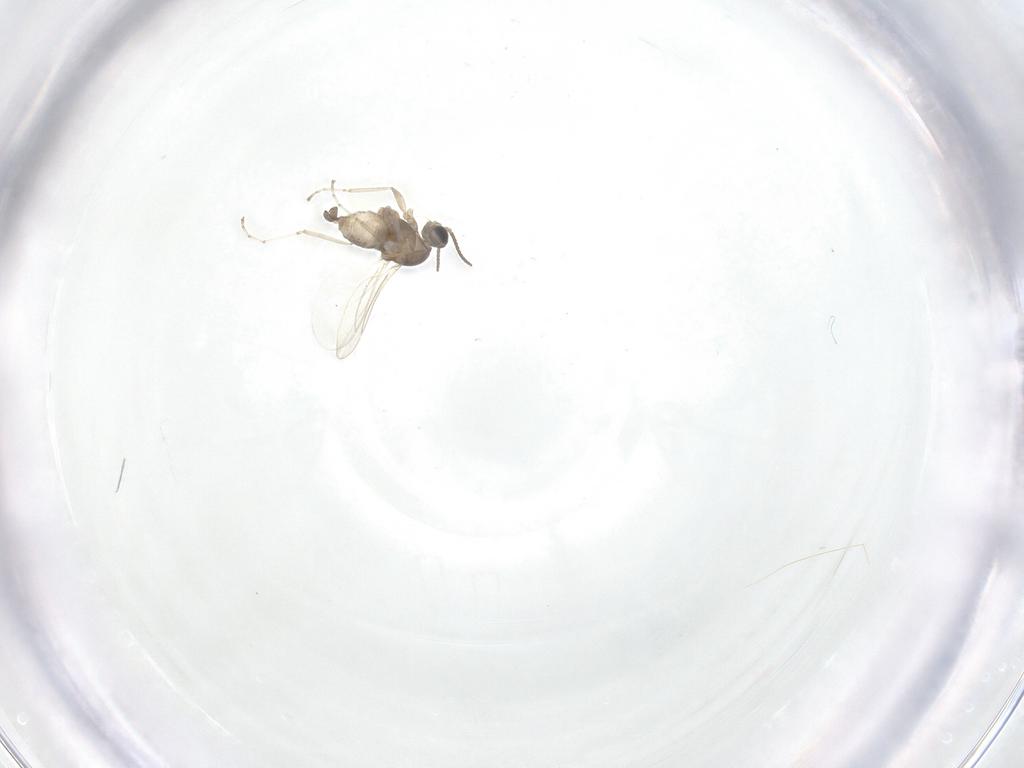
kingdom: Animalia
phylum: Arthropoda
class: Insecta
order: Diptera
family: Cecidomyiidae
